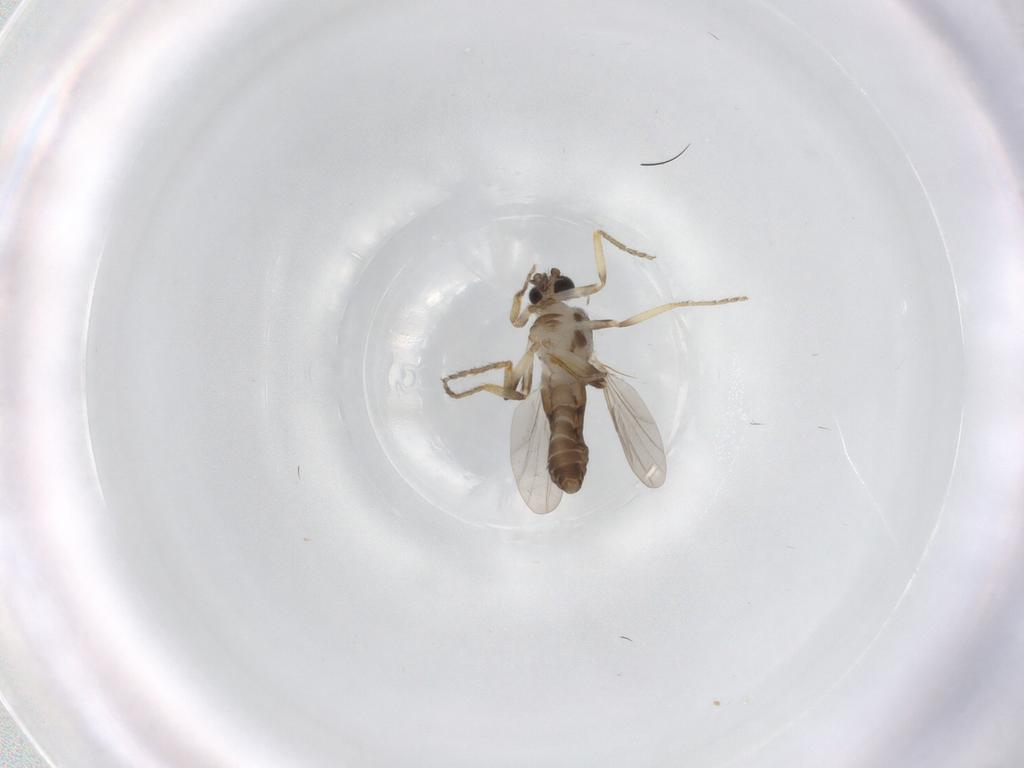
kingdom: Animalia
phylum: Arthropoda
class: Insecta
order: Diptera
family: Ceratopogonidae
